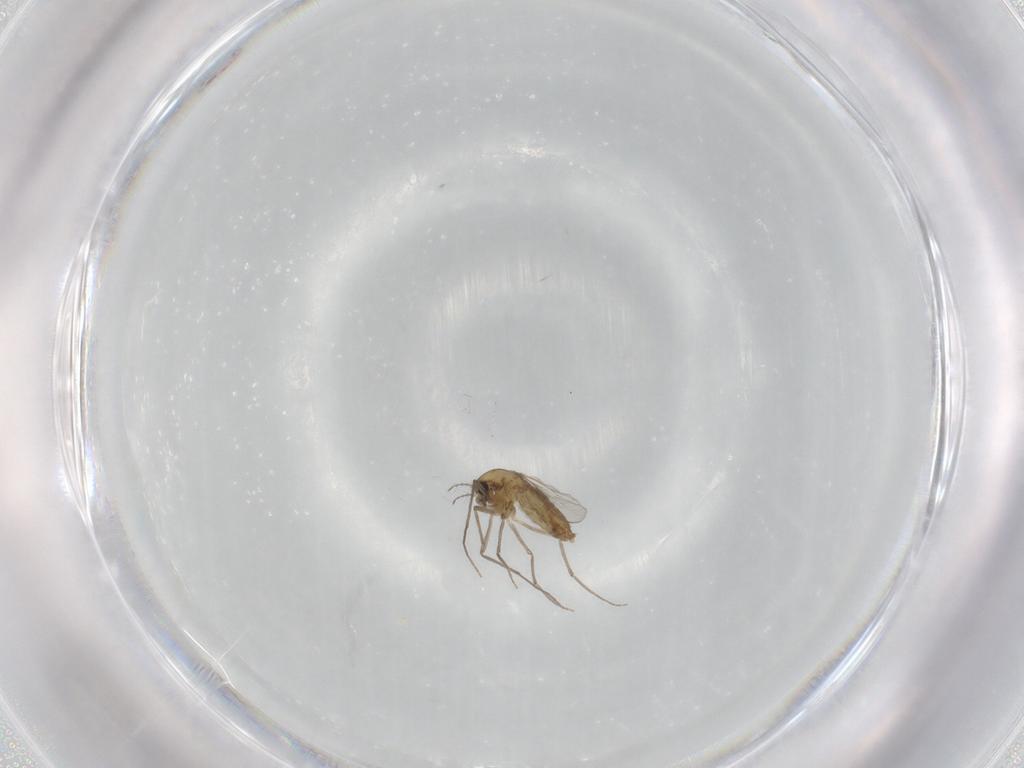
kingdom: Animalia
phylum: Arthropoda
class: Insecta
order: Diptera
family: Chironomidae
